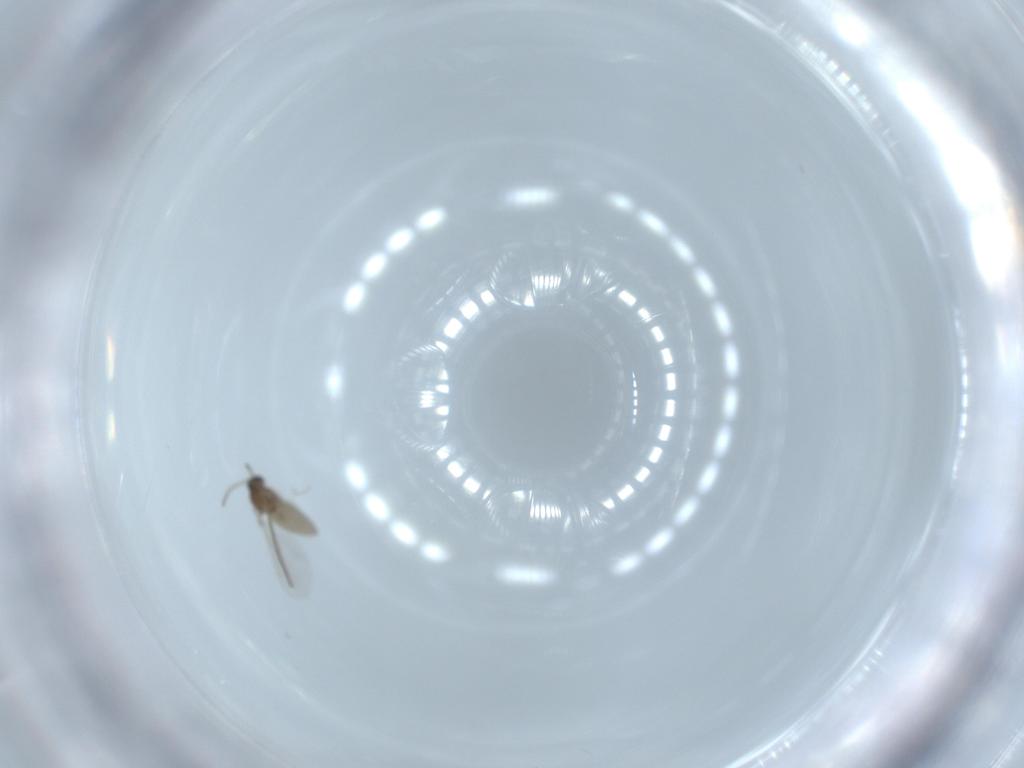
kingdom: Animalia
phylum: Arthropoda
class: Insecta
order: Diptera
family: Cecidomyiidae
